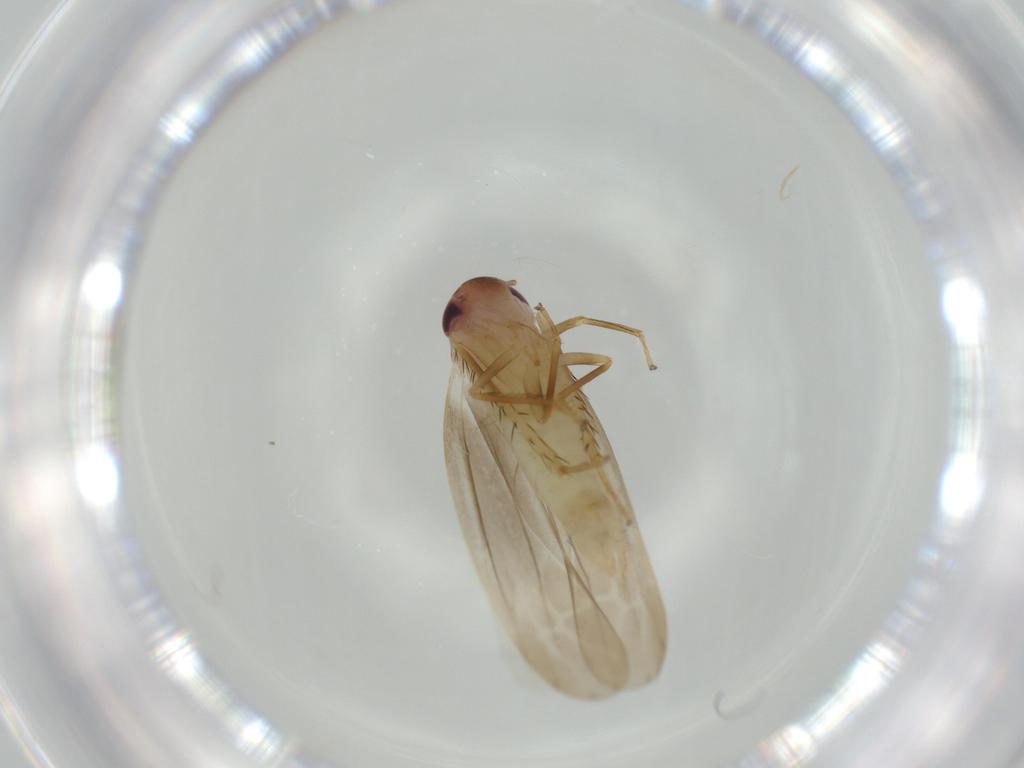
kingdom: Animalia
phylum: Arthropoda
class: Insecta
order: Hemiptera
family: Cicadellidae
